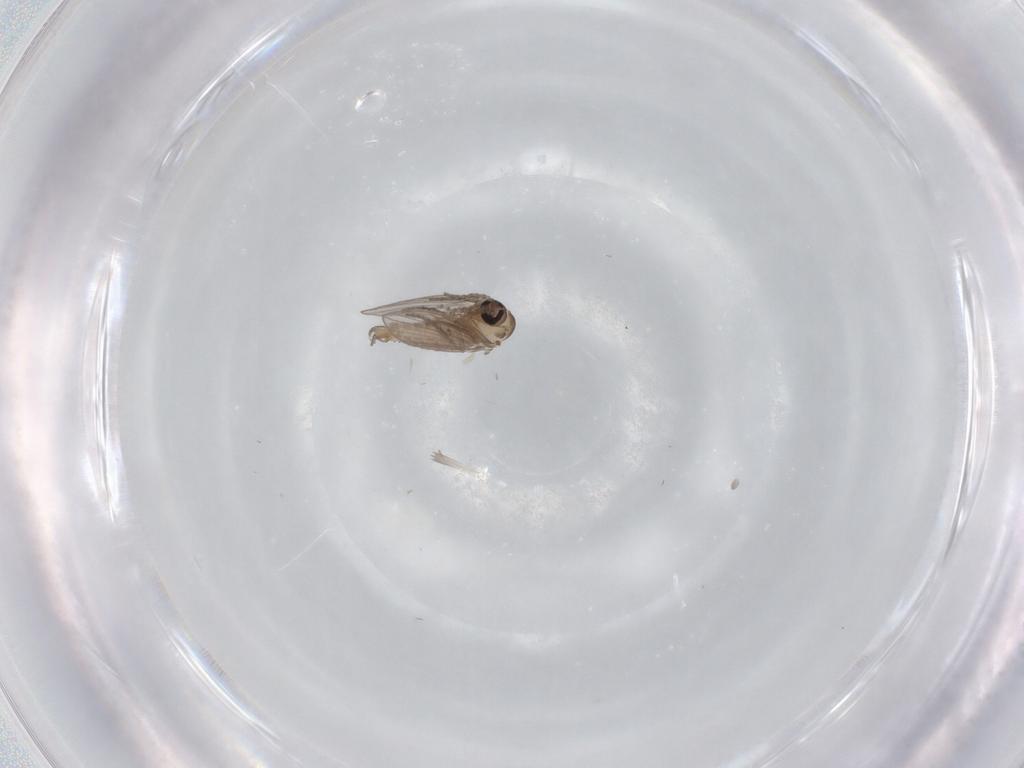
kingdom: Animalia
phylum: Arthropoda
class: Insecta
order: Diptera
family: Psychodidae
